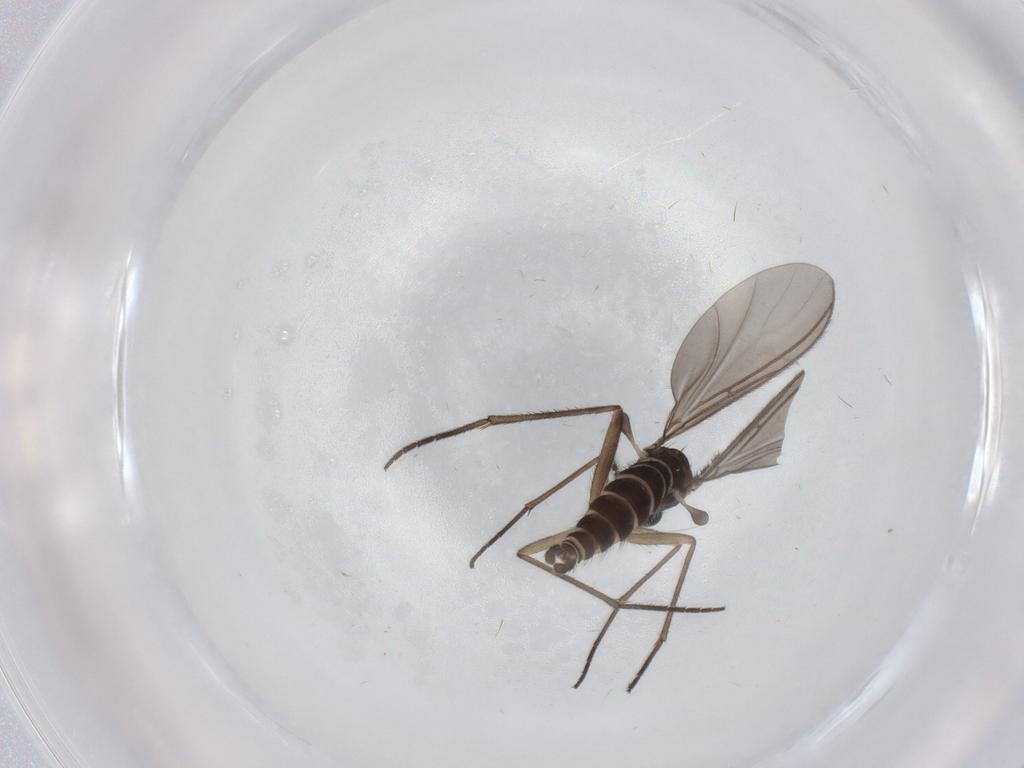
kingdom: Animalia
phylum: Arthropoda
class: Insecta
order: Diptera
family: Sciaridae
